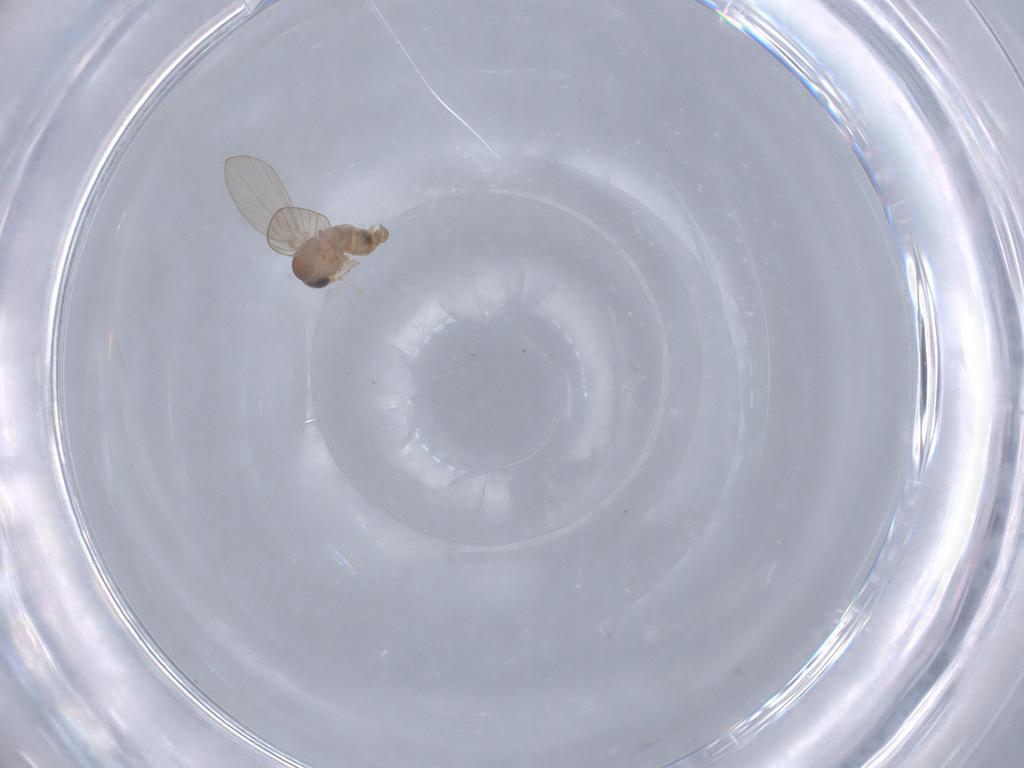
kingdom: Animalia
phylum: Arthropoda
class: Insecta
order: Diptera
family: Psychodidae
